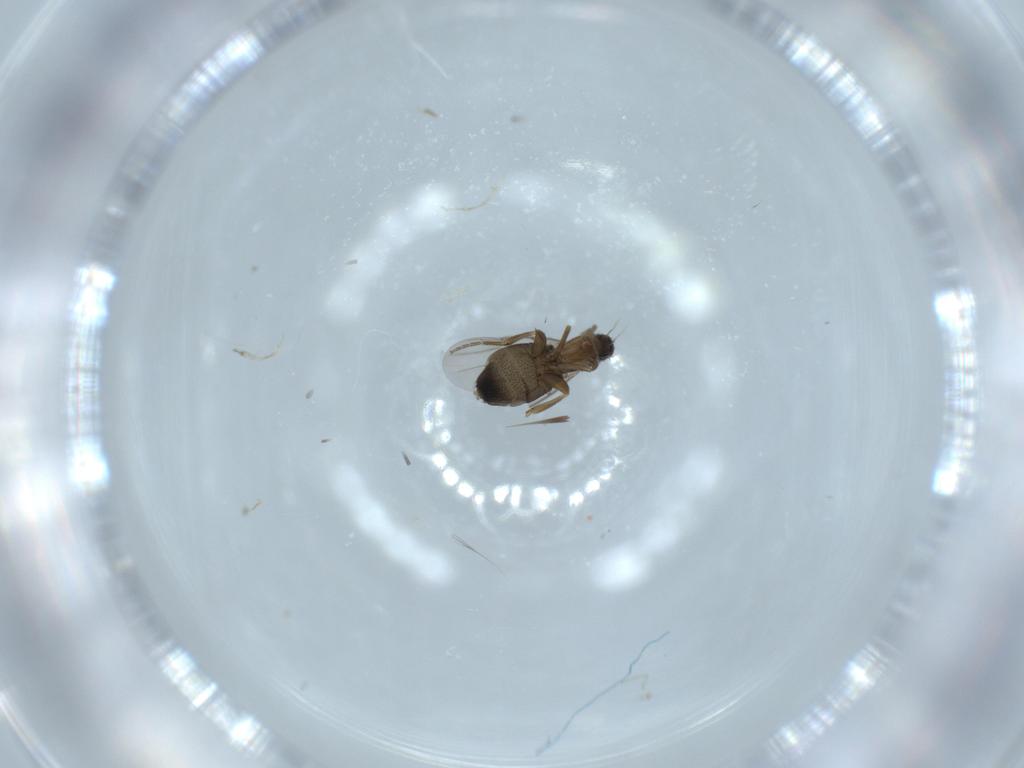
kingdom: Animalia
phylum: Arthropoda
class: Insecta
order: Diptera
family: Phoridae
